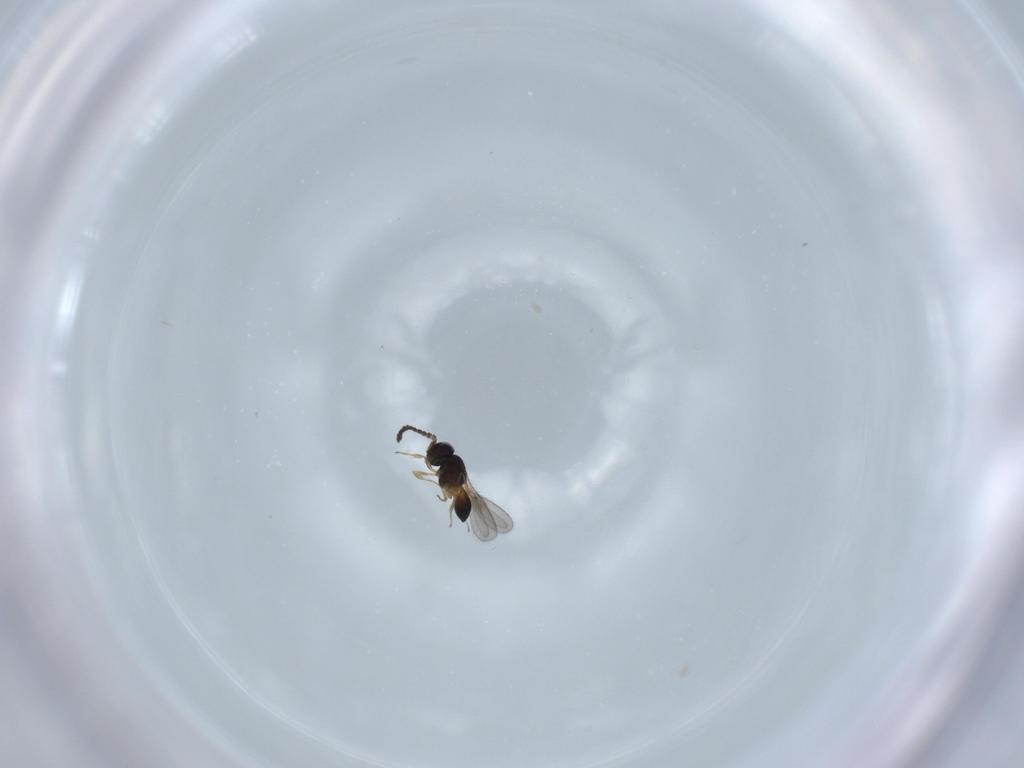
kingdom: Animalia
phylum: Arthropoda
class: Insecta
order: Hymenoptera
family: Scelionidae
